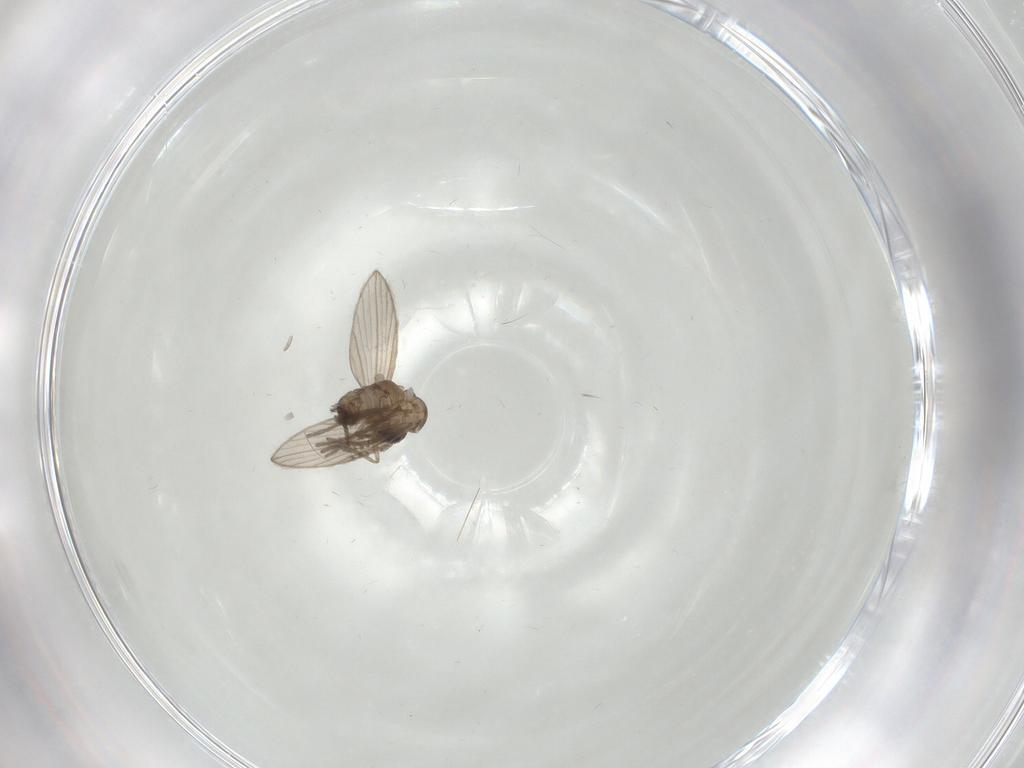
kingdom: Animalia
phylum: Arthropoda
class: Insecta
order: Diptera
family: Psychodidae
